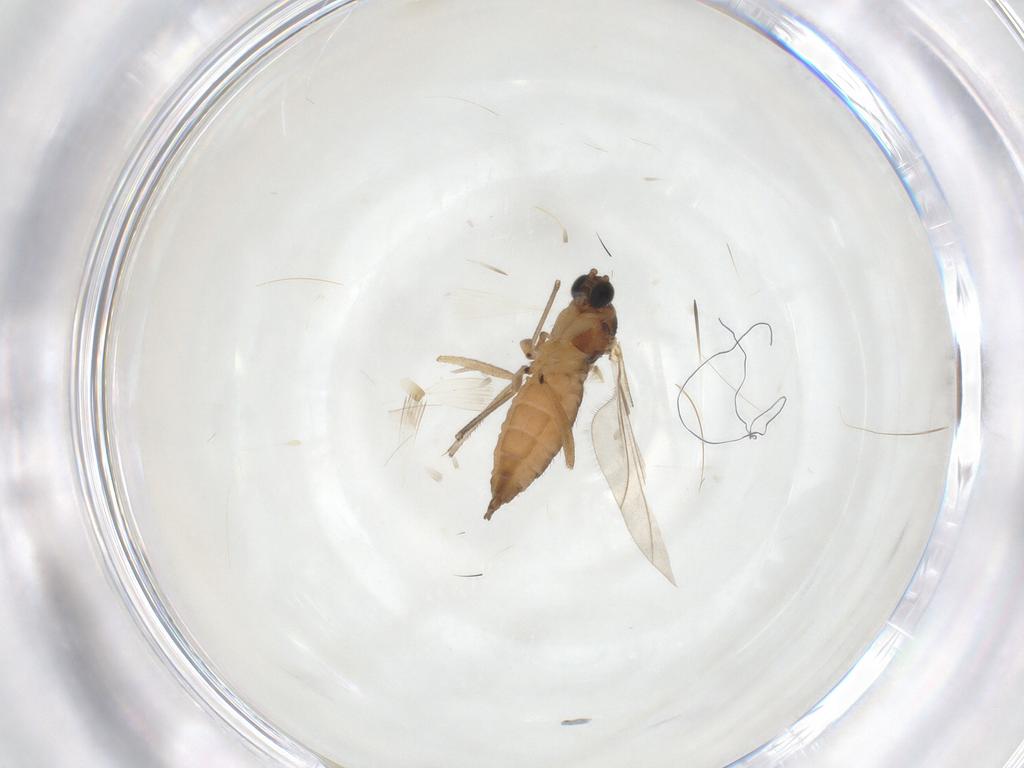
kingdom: Animalia
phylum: Arthropoda
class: Insecta
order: Diptera
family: Sciaridae
